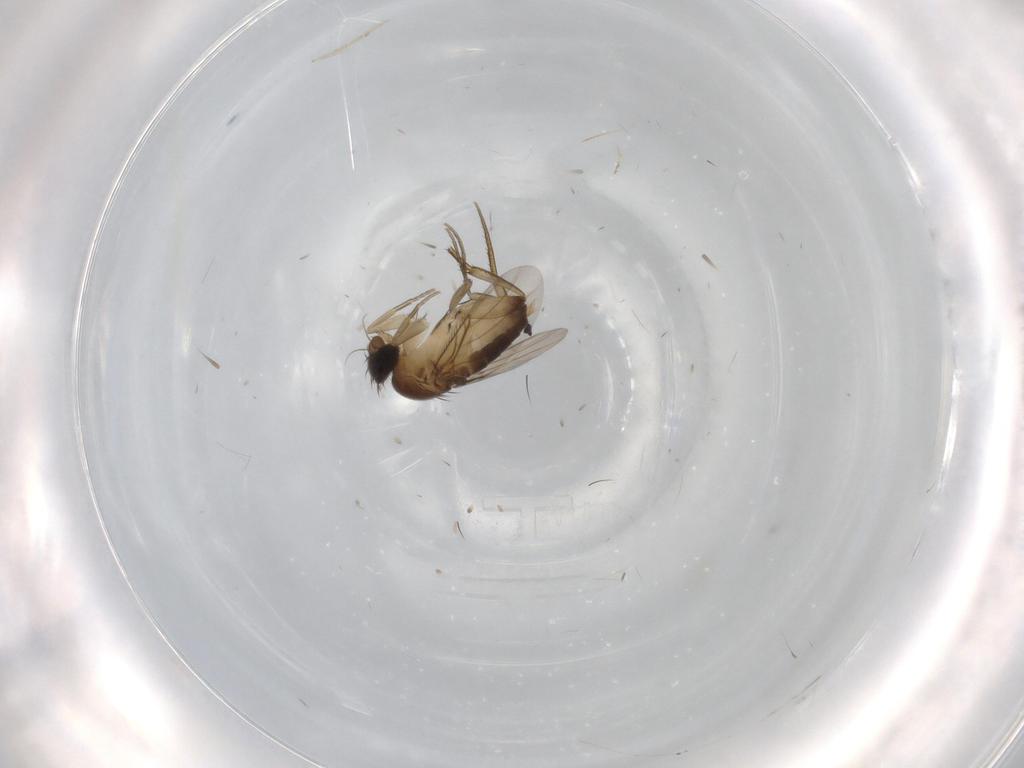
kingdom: Animalia
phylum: Arthropoda
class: Insecta
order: Diptera
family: Phoridae
